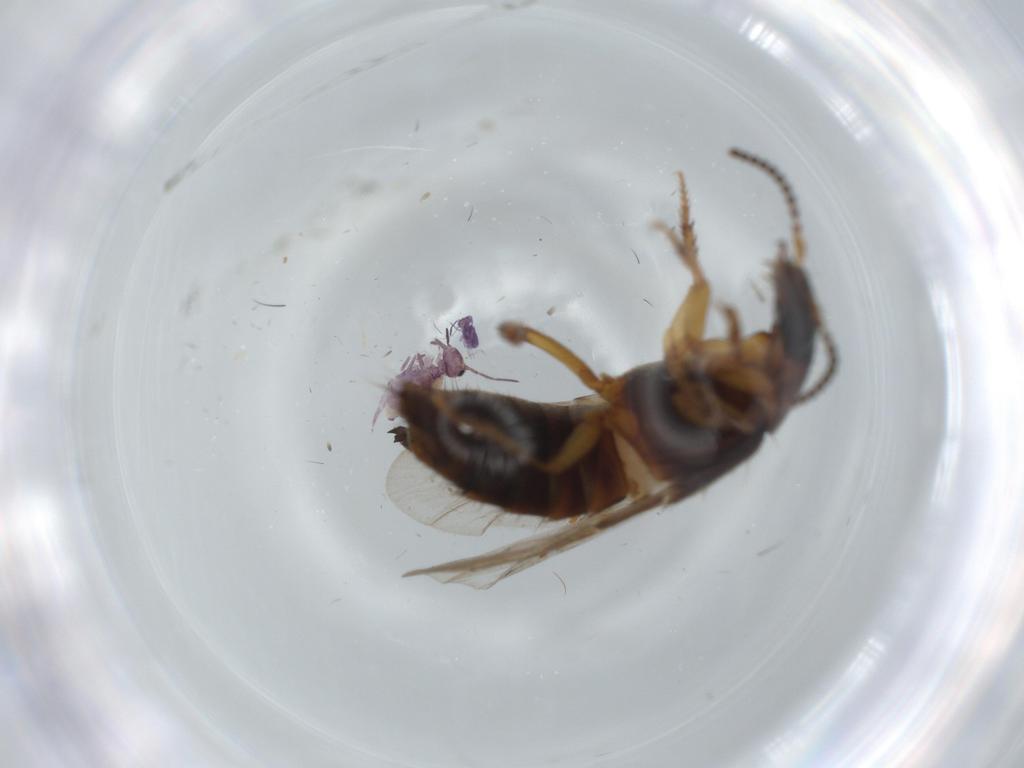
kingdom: Animalia
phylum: Arthropoda
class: Insecta
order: Coleoptera
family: Staphylinidae
